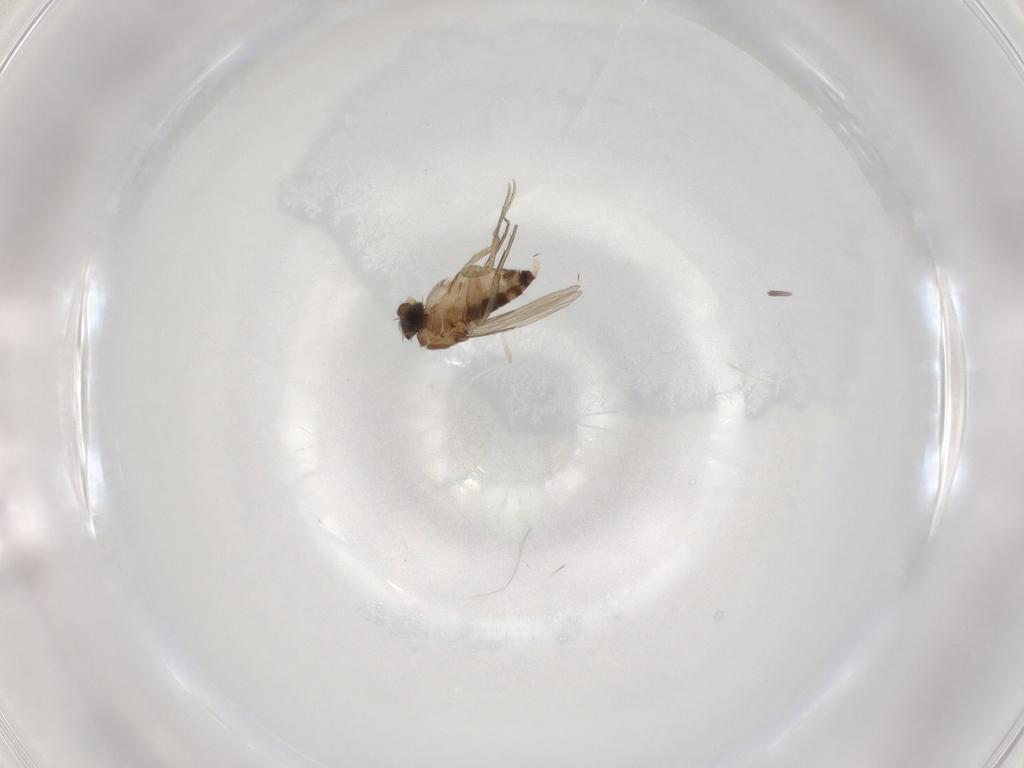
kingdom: Animalia
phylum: Arthropoda
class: Insecta
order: Diptera
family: Phoridae
